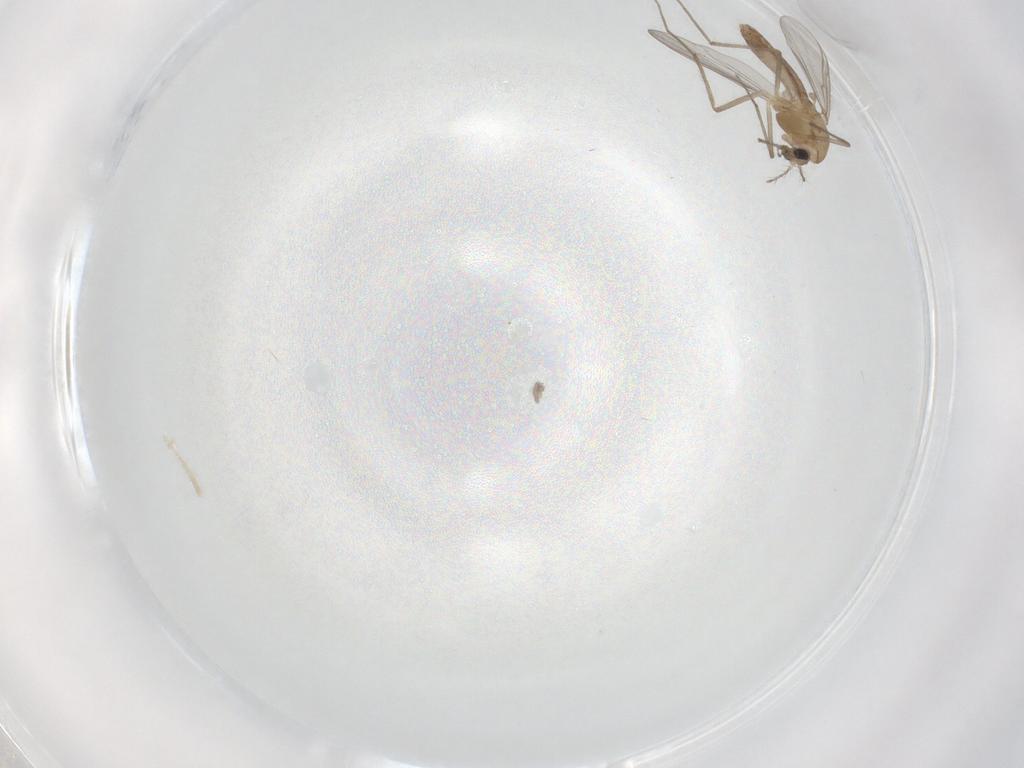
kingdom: Animalia
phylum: Arthropoda
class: Insecta
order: Diptera
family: Chironomidae
